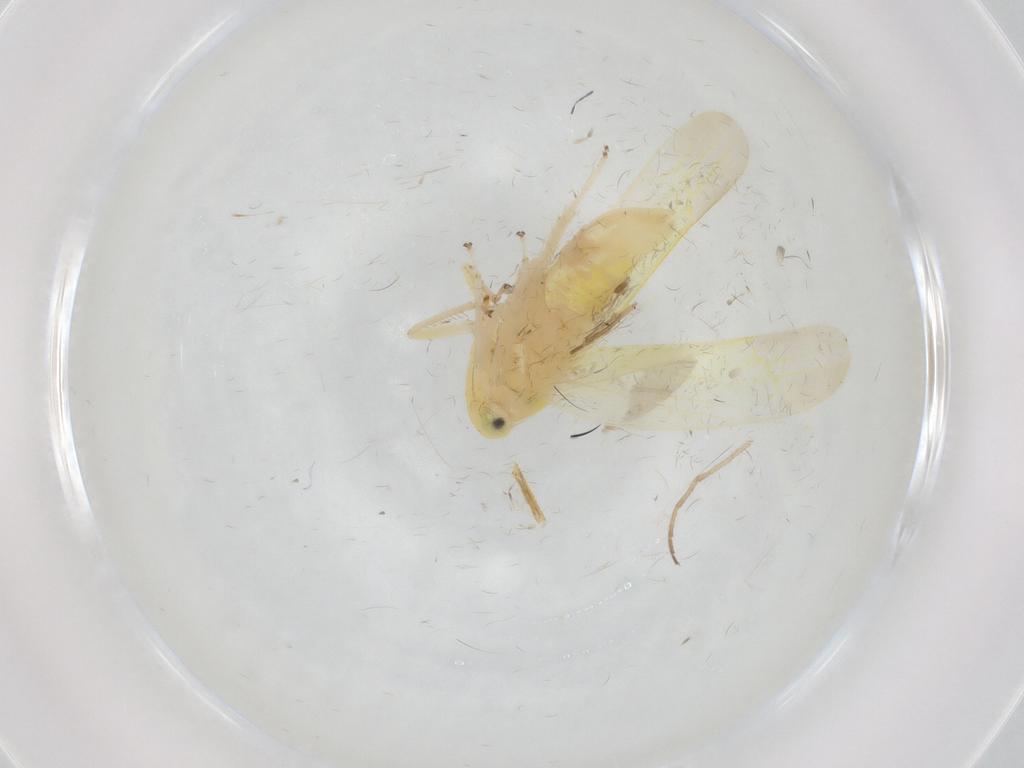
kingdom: Animalia
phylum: Arthropoda
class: Insecta
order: Hemiptera
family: Cicadellidae
